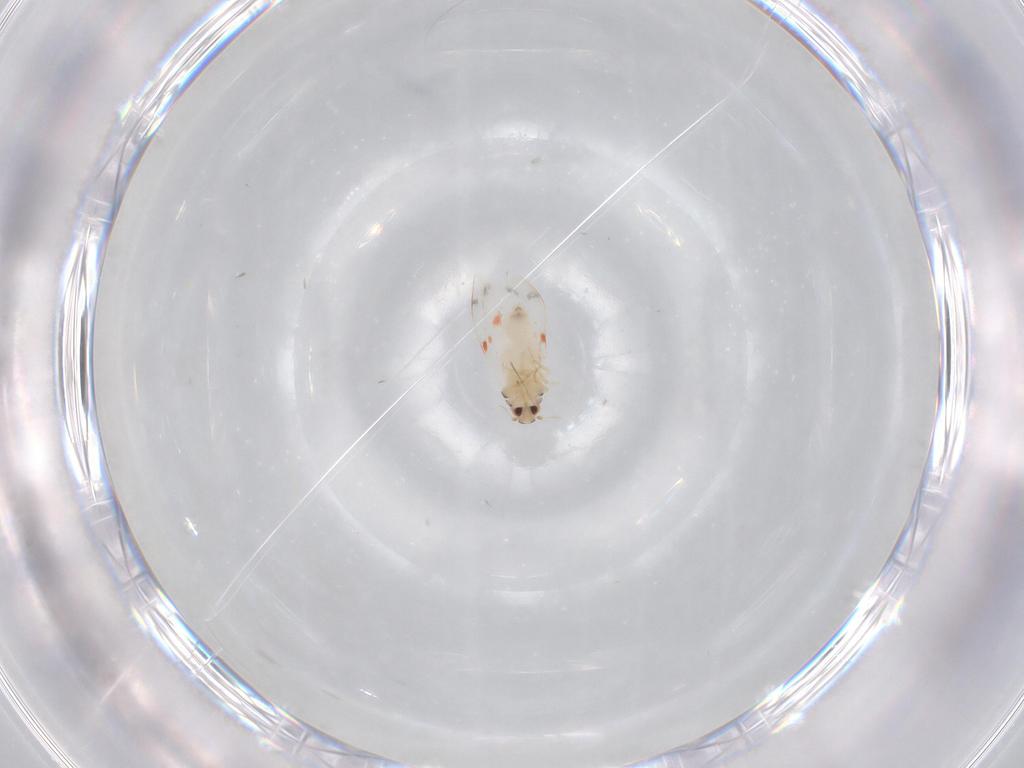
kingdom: Animalia
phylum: Arthropoda
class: Insecta
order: Hemiptera
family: Aleyrodidae
